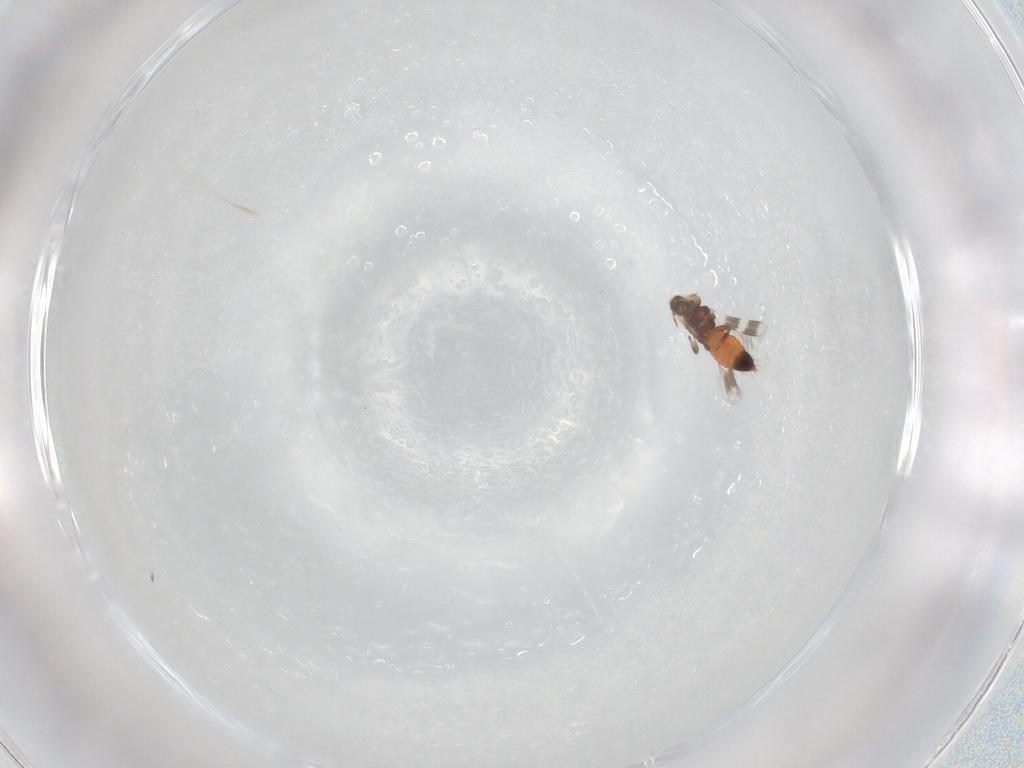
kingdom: Animalia
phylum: Arthropoda
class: Insecta
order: Thysanoptera
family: Aeolothripidae
